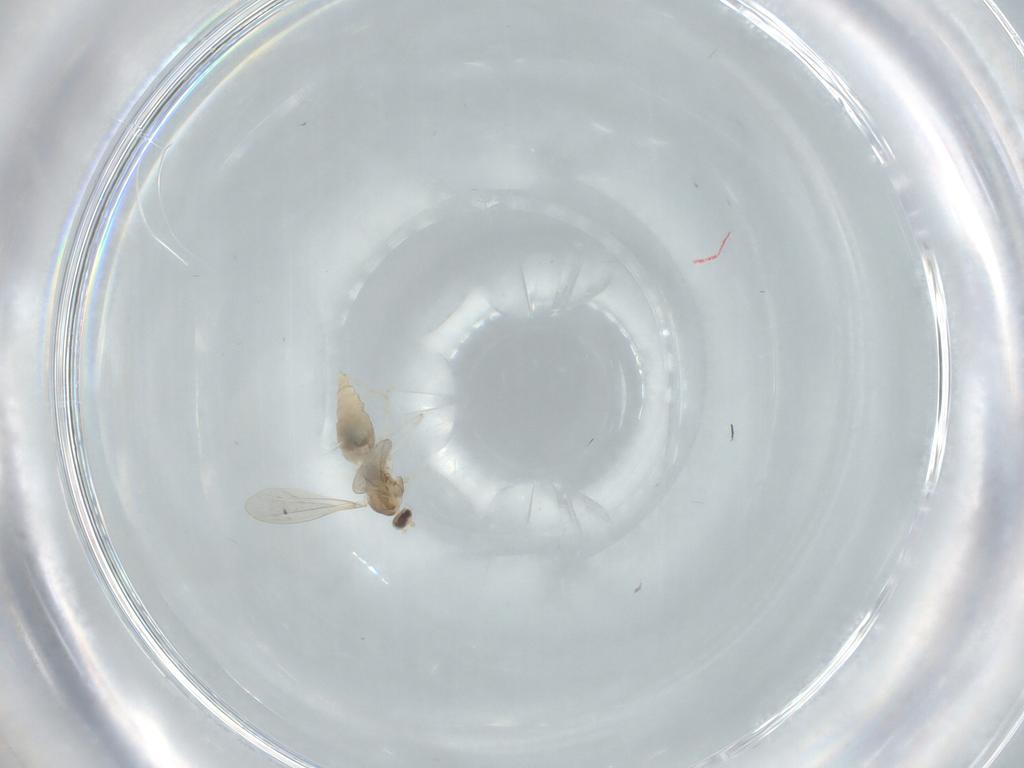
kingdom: Animalia
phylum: Arthropoda
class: Insecta
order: Diptera
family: Cecidomyiidae
